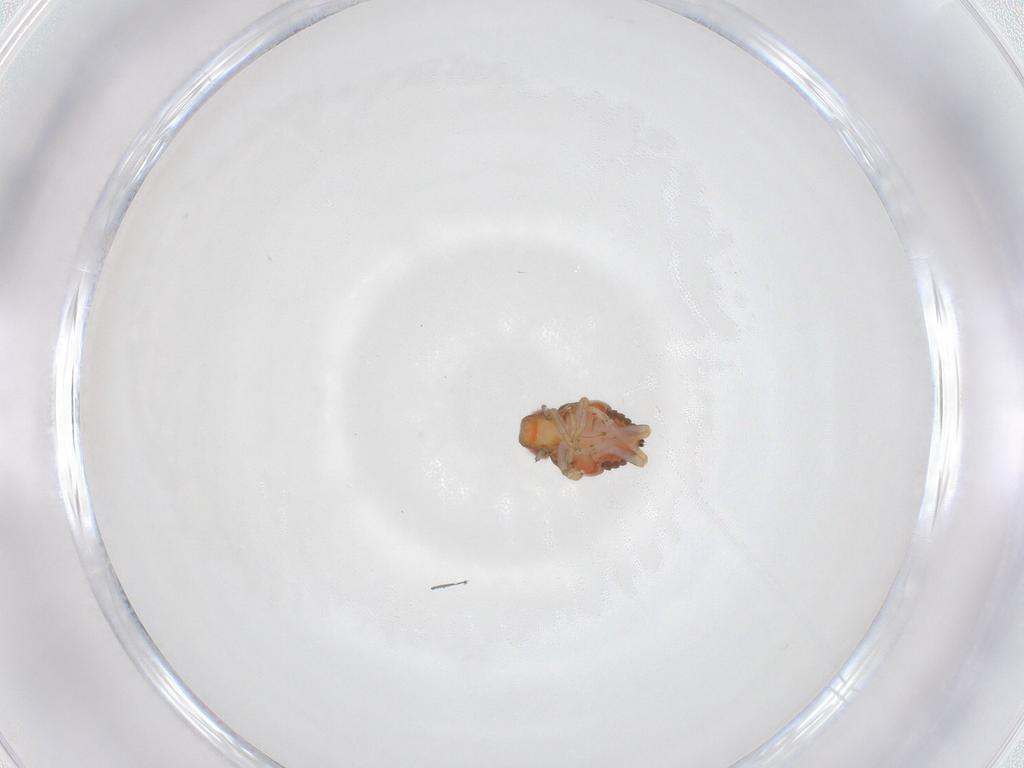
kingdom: Animalia
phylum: Arthropoda
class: Insecta
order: Hemiptera
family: Issidae
